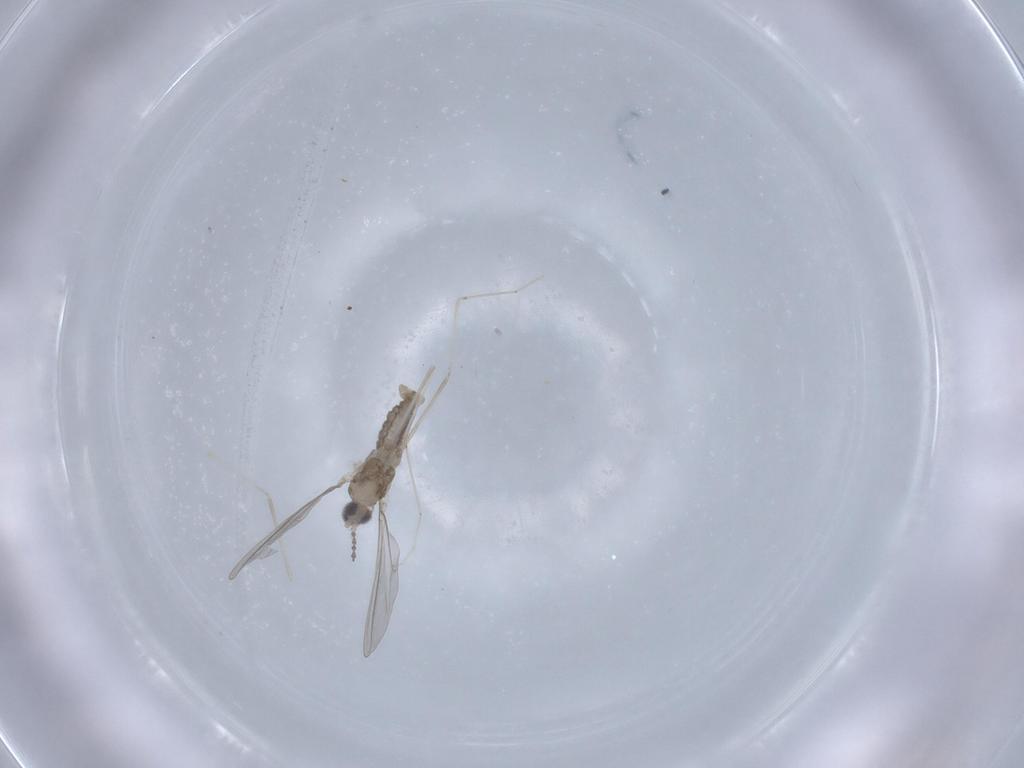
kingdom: Animalia
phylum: Arthropoda
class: Insecta
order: Diptera
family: Cecidomyiidae
